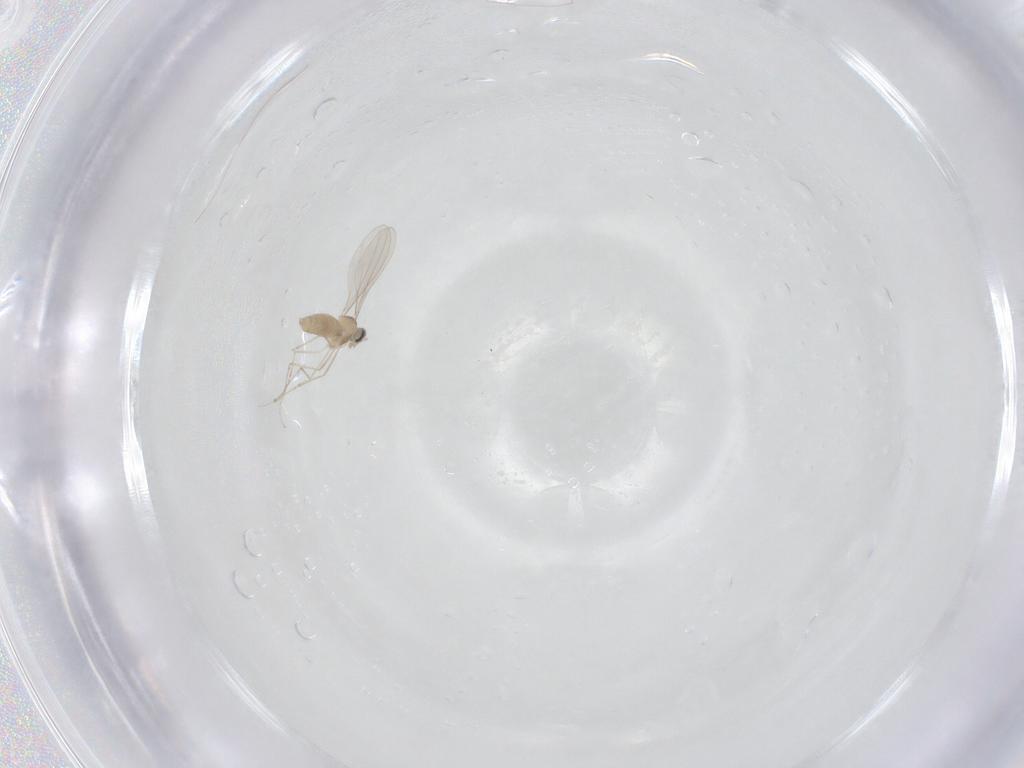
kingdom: Animalia
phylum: Arthropoda
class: Insecta
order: Diptera
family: Cecidomyiidae
